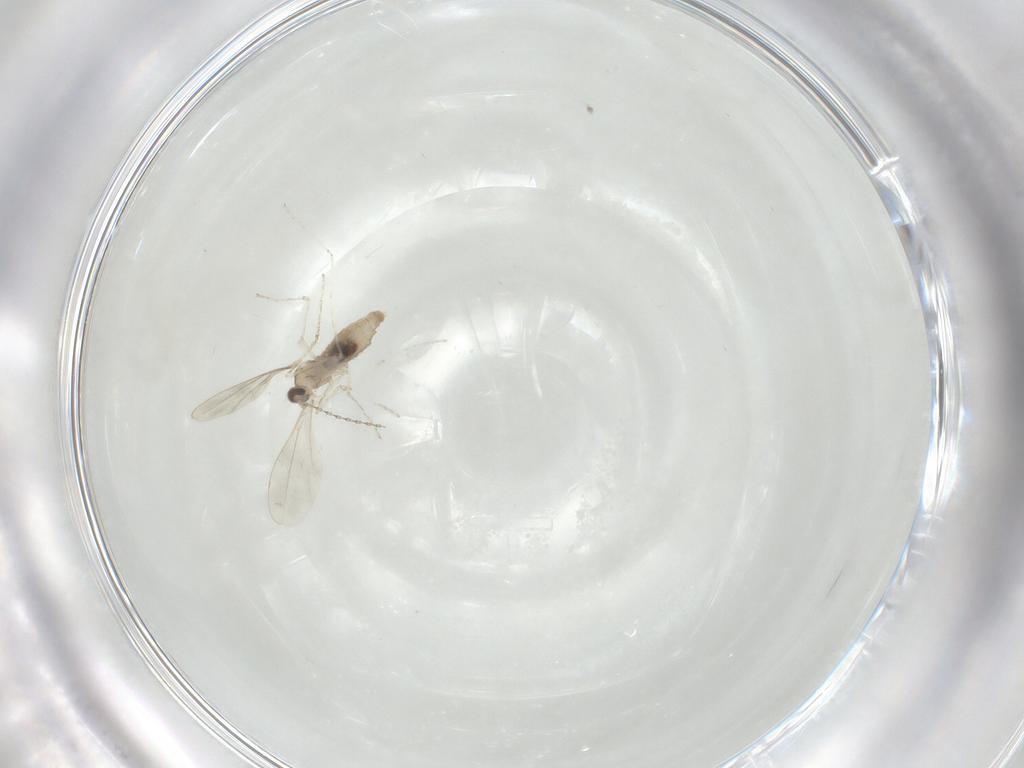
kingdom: Animalia
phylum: Arthropoda
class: Insecta
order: Diptera
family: Cecidomyiidae
